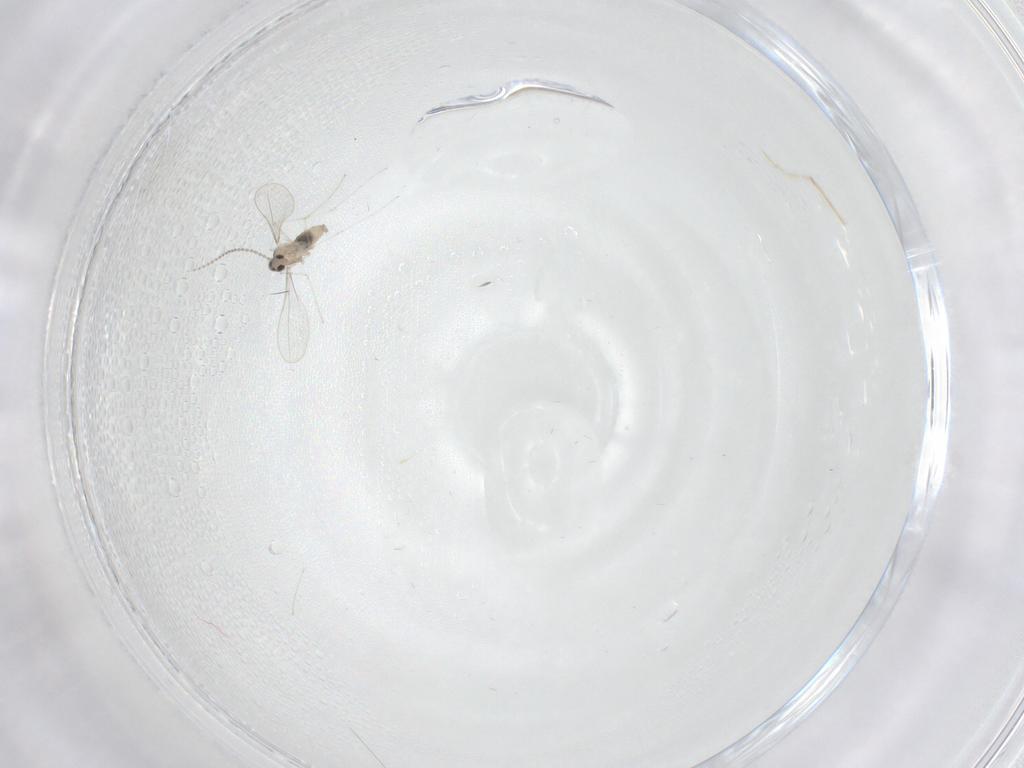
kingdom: Animalia
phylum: Arthropoda
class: Insecta
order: Diptera
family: Cecidomyiidae
